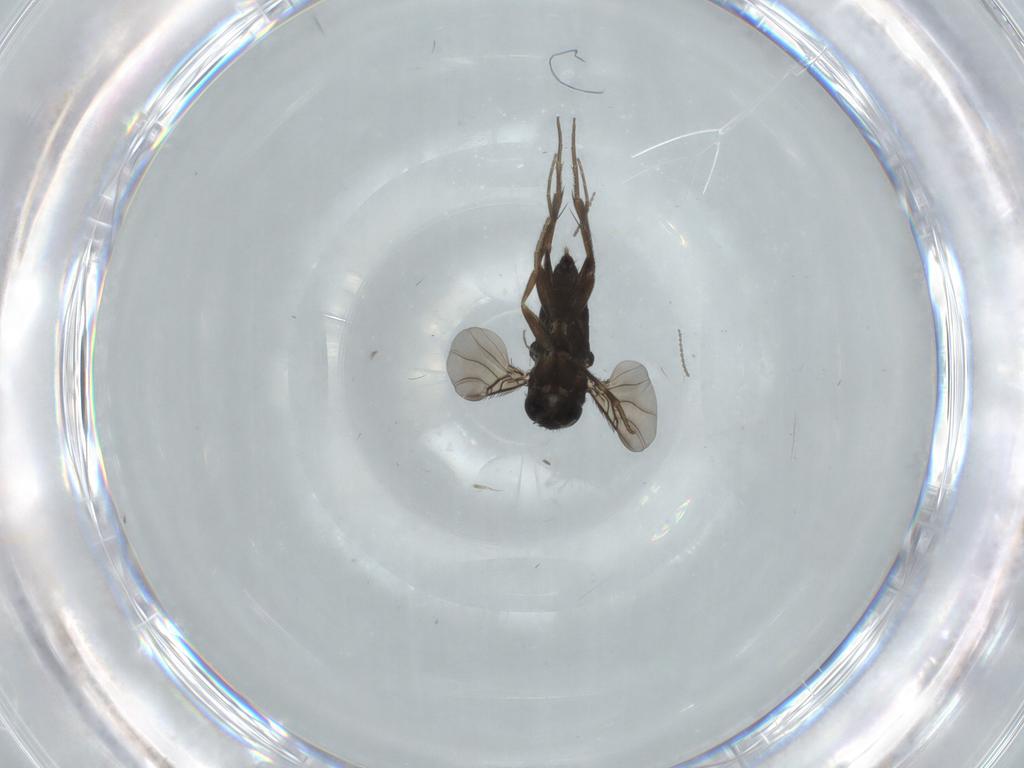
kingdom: Animalia
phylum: Arthropoda
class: Insecta
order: Diptera
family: Cecidomyiidae
